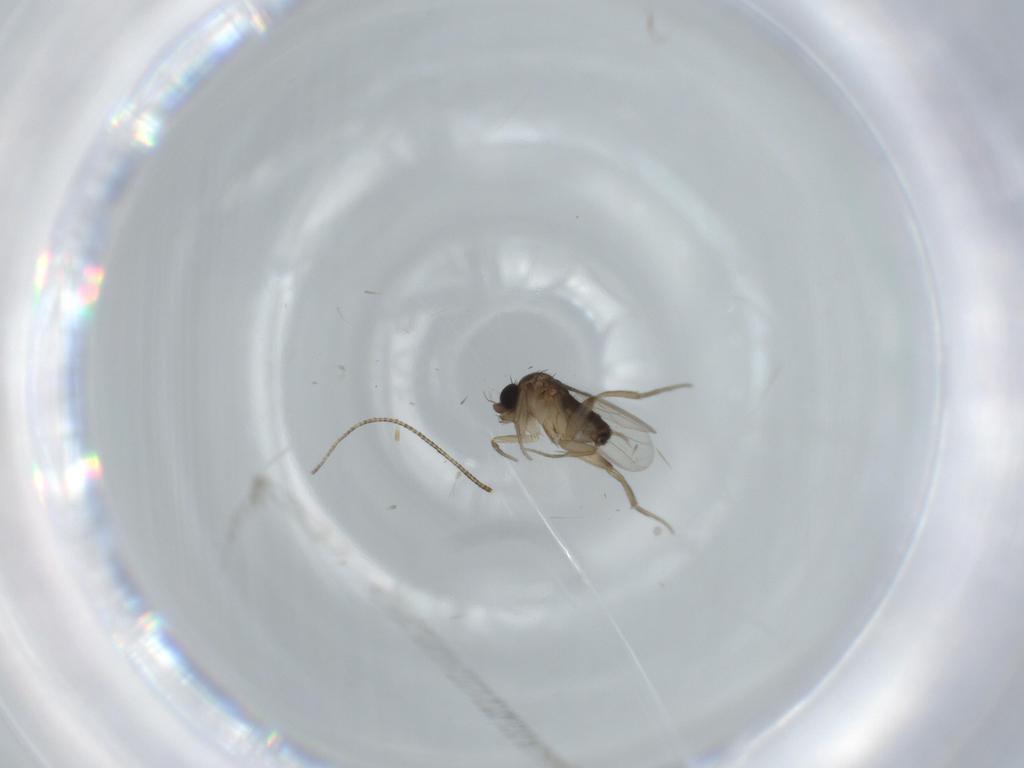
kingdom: Animalia
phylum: Arthropoda
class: Insecta
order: Diptera
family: Phoridae
